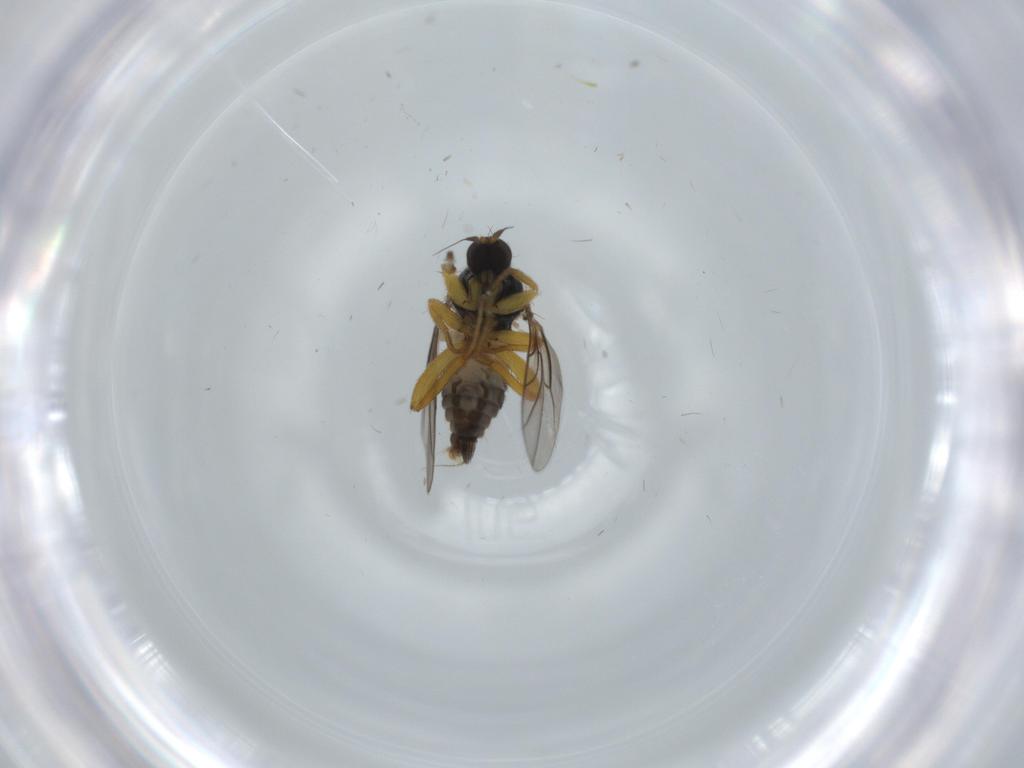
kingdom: Animalia
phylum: Arthropoda
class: Insecta
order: Diptera
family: Hybotidae
